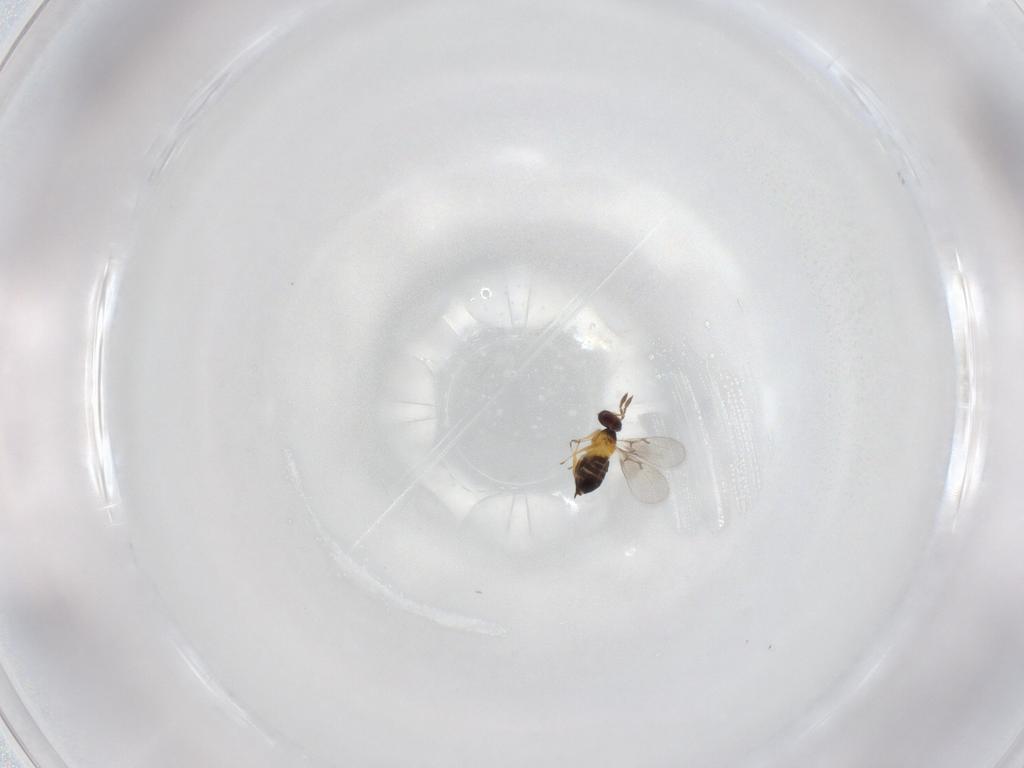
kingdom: Animalia
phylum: Arthropoda
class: Insecta
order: Hymenoptera
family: Trichogrammatidae
